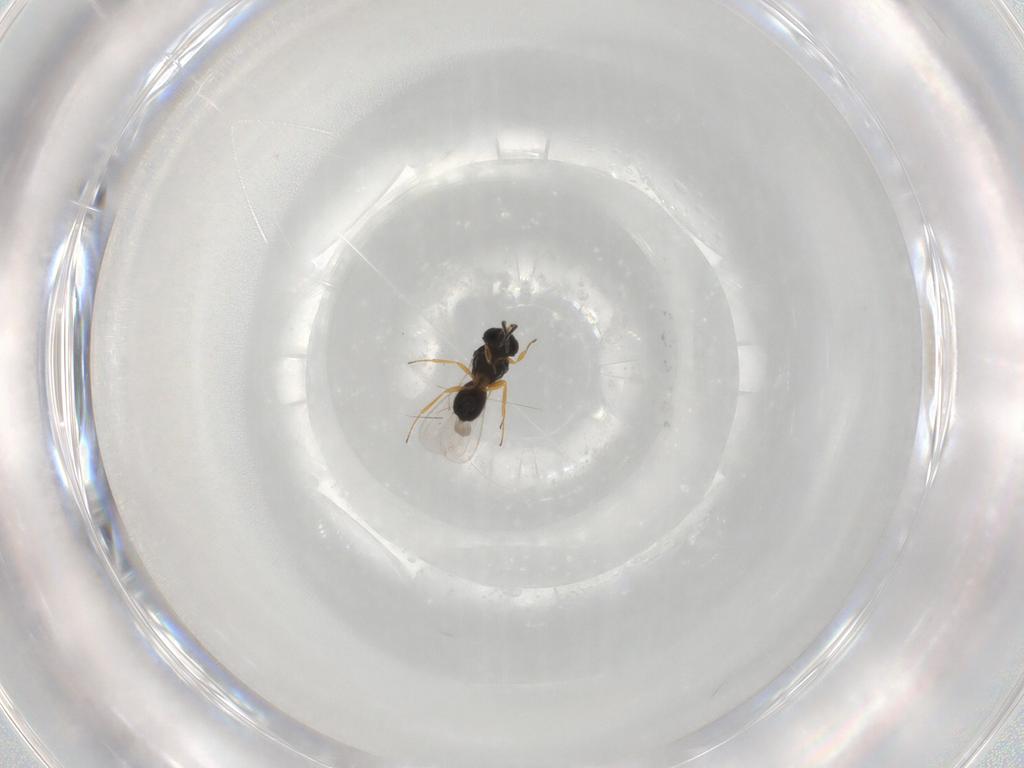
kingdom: Animalia
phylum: Arthropoda
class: Insecta
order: Hymenoptera
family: Scelionidae
